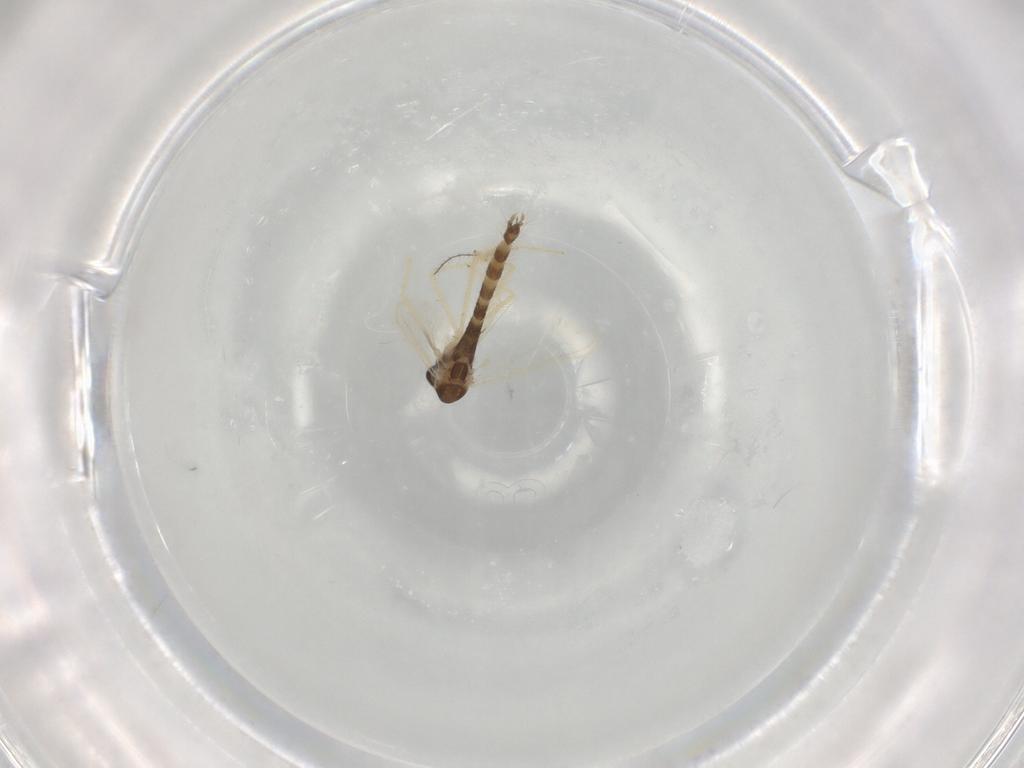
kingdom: Animalia
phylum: Arthropoda
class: Insecta
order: Diptera
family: Chironomidae
